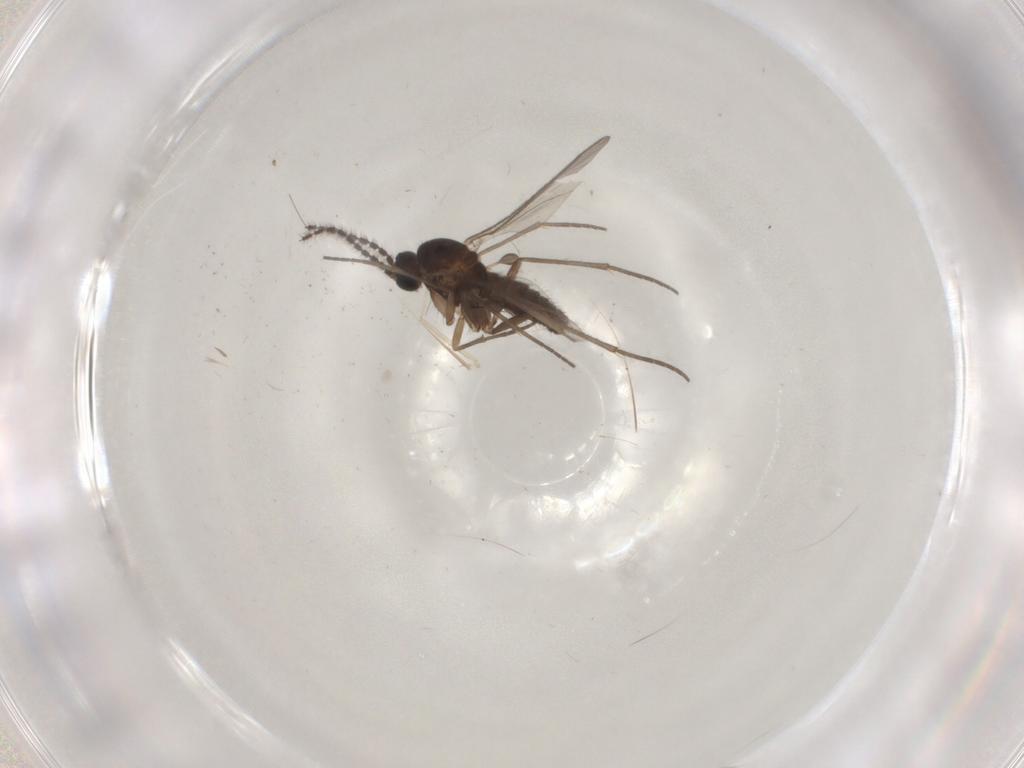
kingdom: Animalia
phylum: Arthropoda
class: Insecta
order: Diptera
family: Sciaridae
